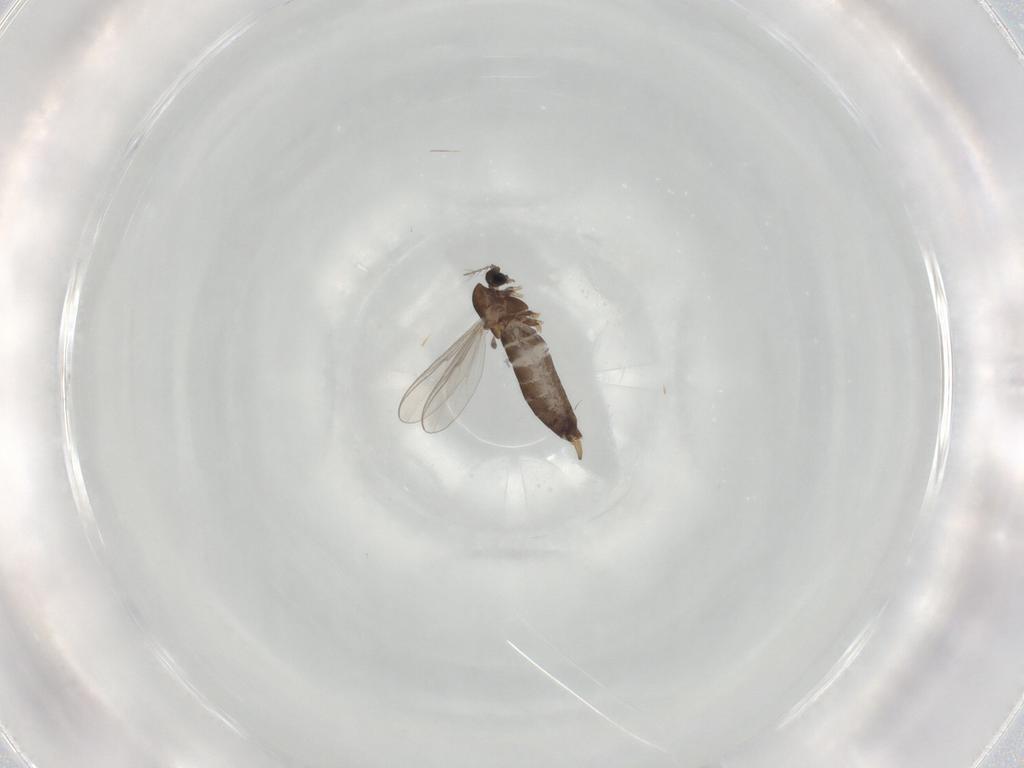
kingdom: Animalia
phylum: Arthropoda
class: Insecta
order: Diptera
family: Chironomidae
